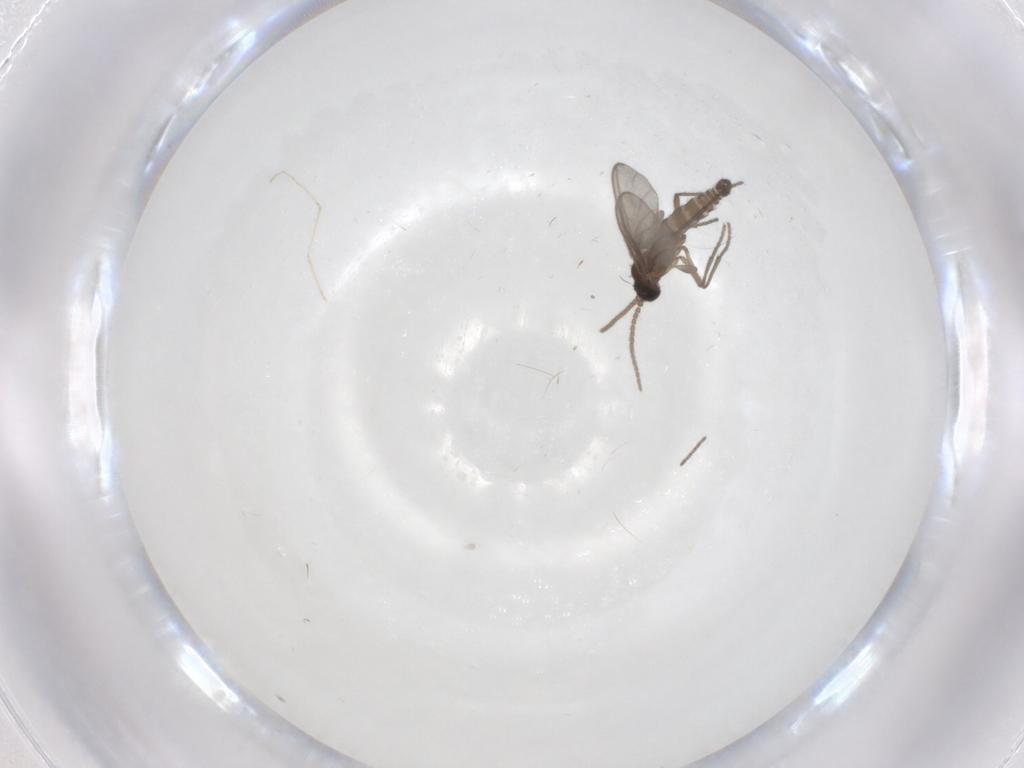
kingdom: Animalia
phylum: Arthropoda
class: Insecta
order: Diptera
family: Sciaridae
